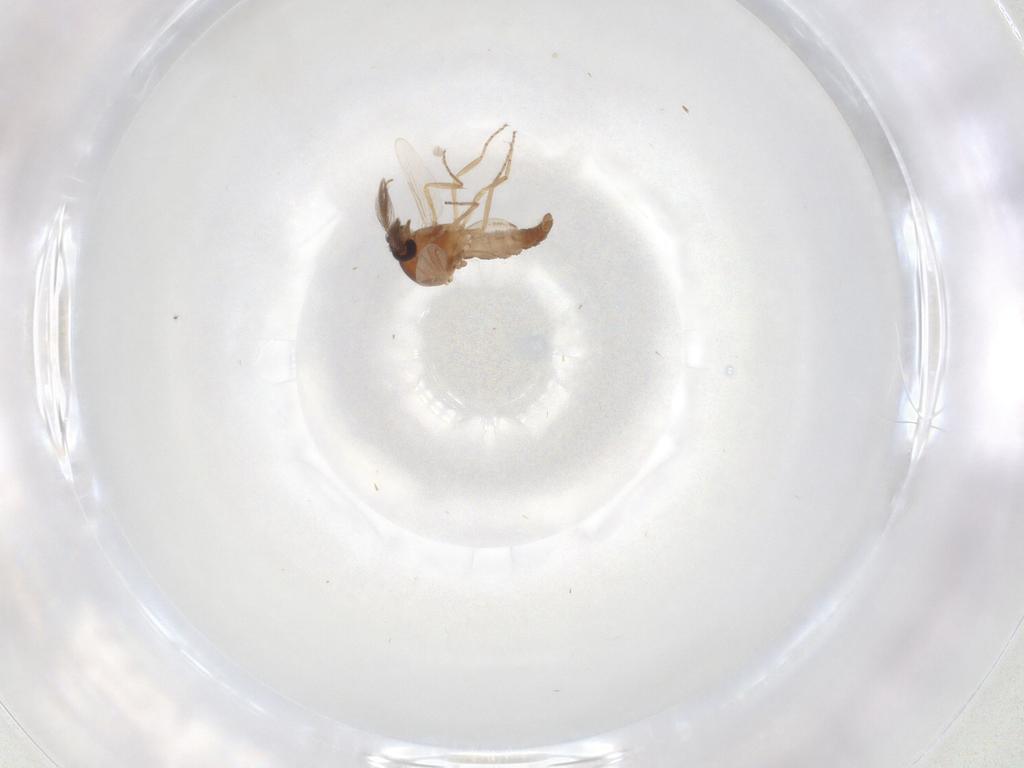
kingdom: Animalia
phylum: Arthropoda
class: Insecta
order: Diptera
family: Ceratopogonidae
